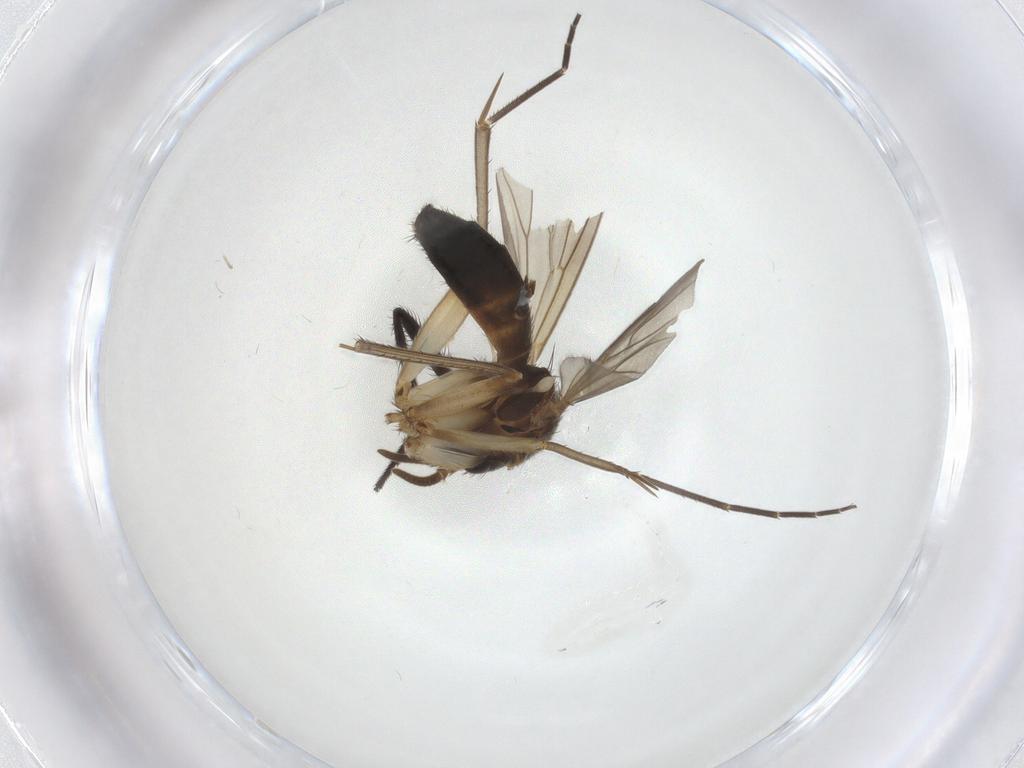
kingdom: Animalia
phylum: Arthropoda
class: Insecta
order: Diptera
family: Mycetophilidae
